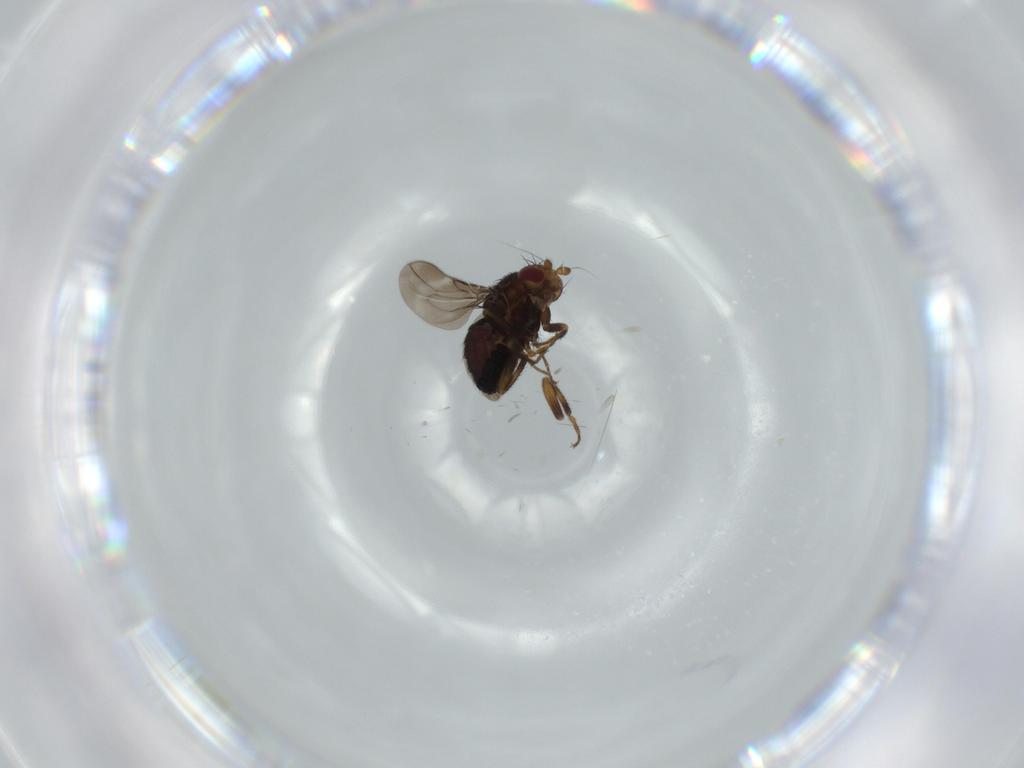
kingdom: Animalia
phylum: Arthropoda
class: Insecta
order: Diptera
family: Sphaeroceridae
